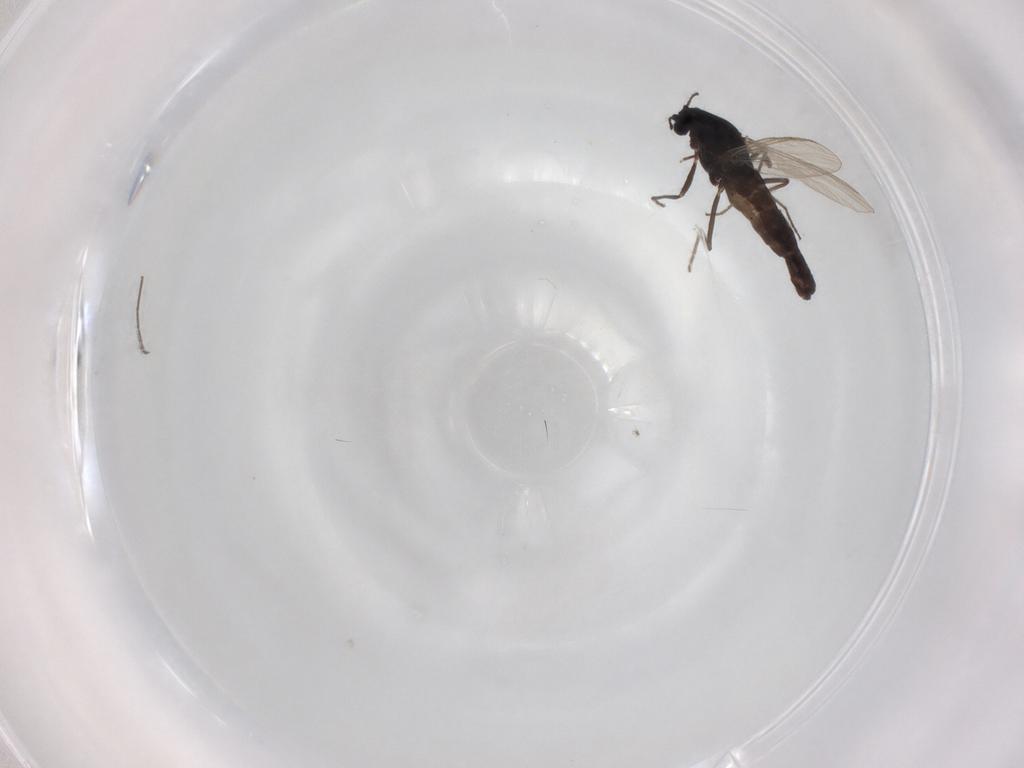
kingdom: Animalia
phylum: Arthropoda
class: Insecta
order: Diptera
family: Chironomidae
